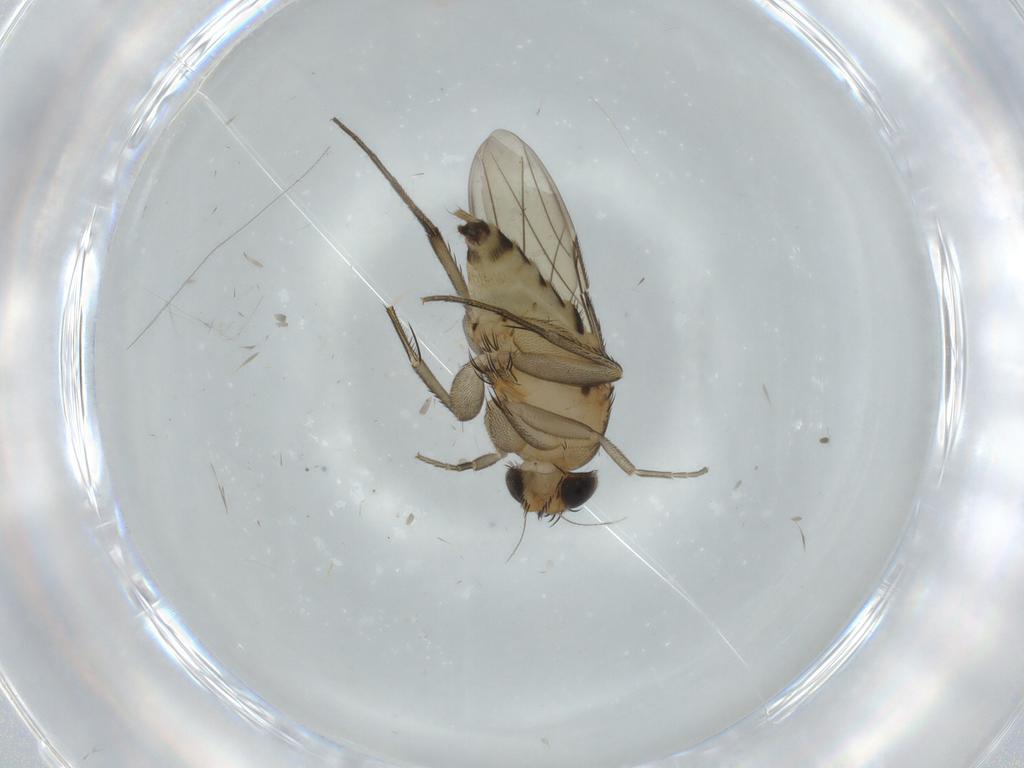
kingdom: Animalia
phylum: Arthropoda
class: Insecta
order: Diptera
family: Phoridae
